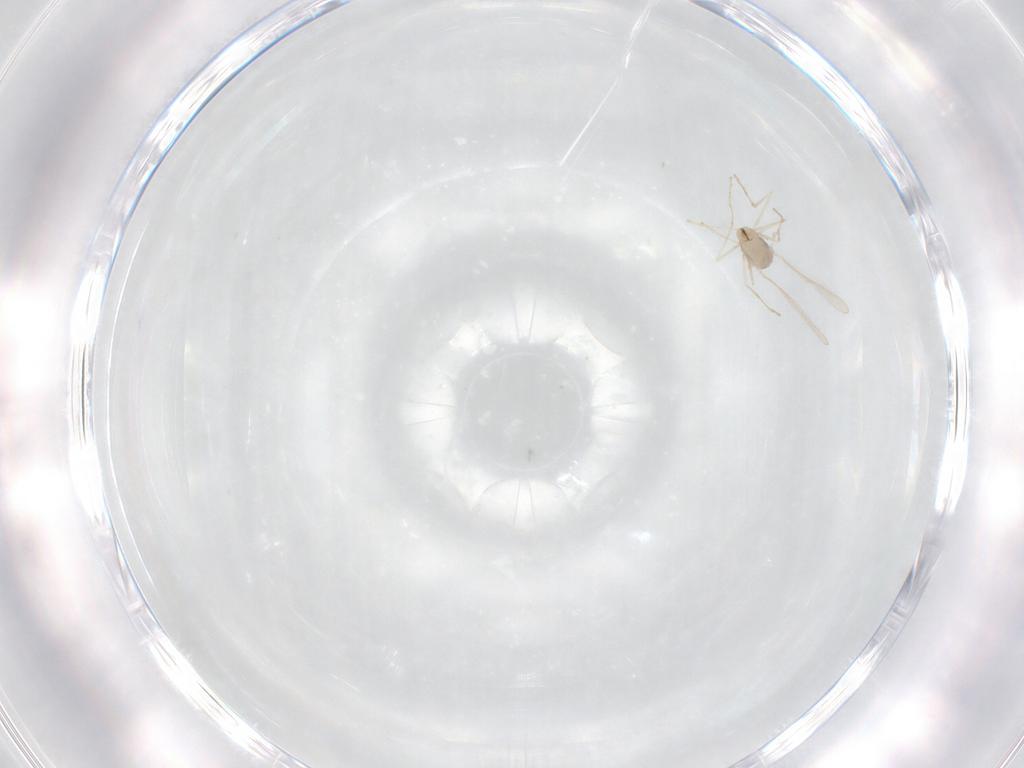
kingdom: Animalia
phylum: Arthropoda
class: Insecta
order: Diptera
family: Cecidomyiidae
